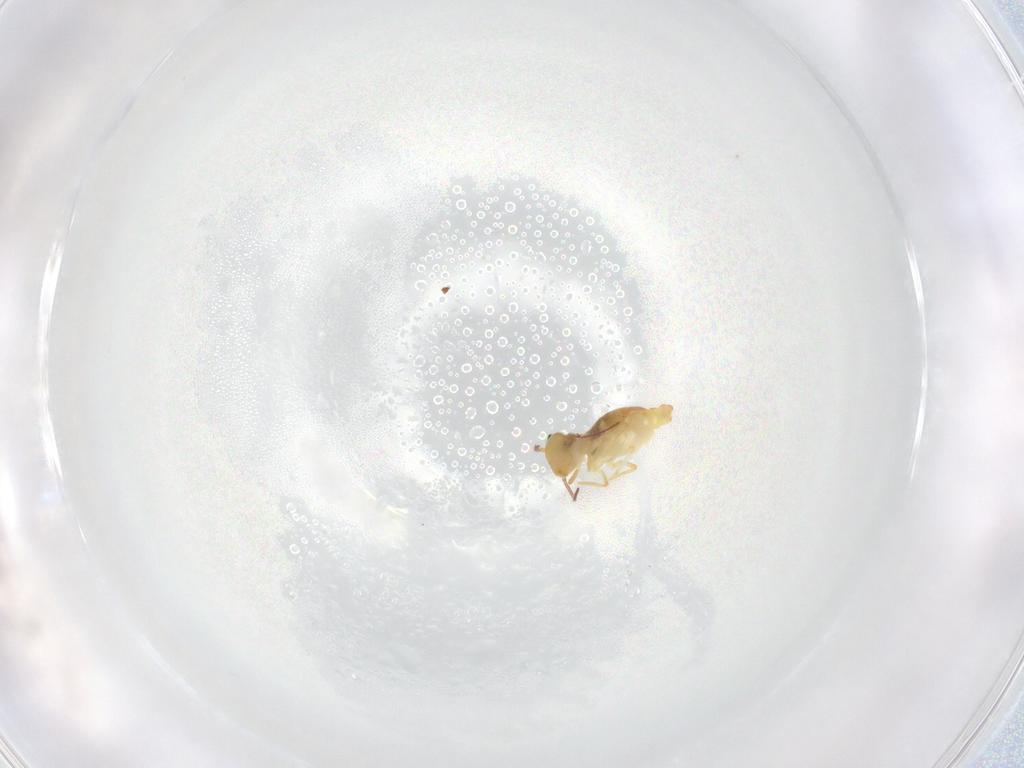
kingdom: Animalia
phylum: Arthropoda
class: Collembola
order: Symphypleona
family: Bourletiellidae
